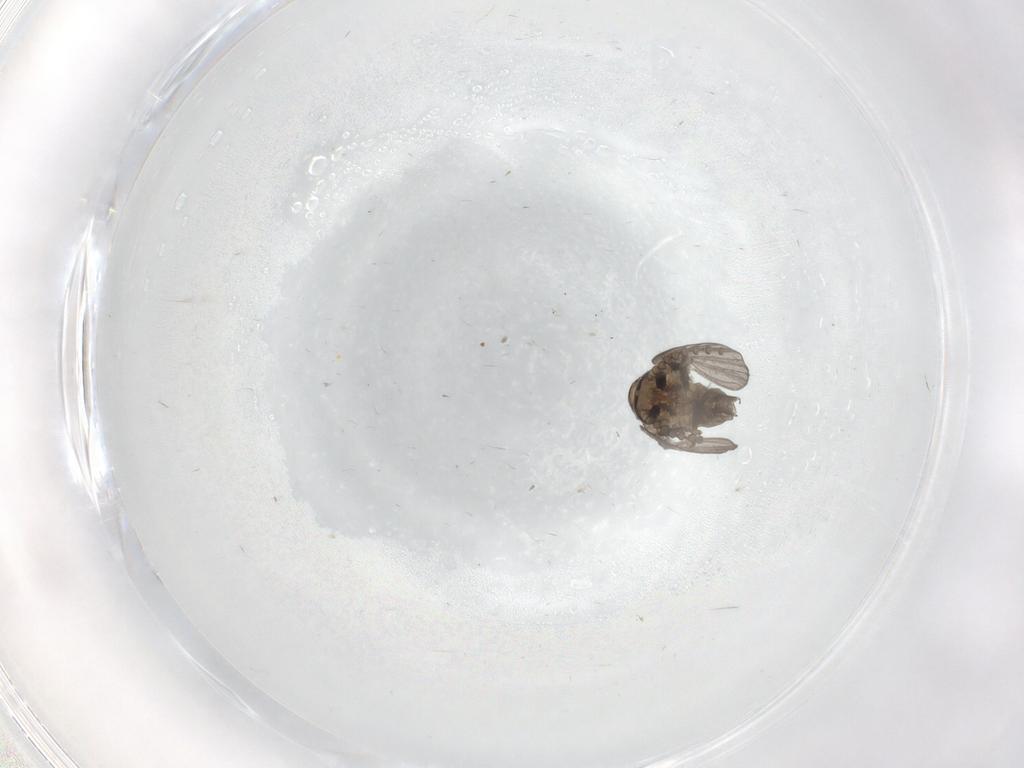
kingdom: Animalia
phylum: Arthropoda
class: Insecta
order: Diptera
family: Psychodidae
